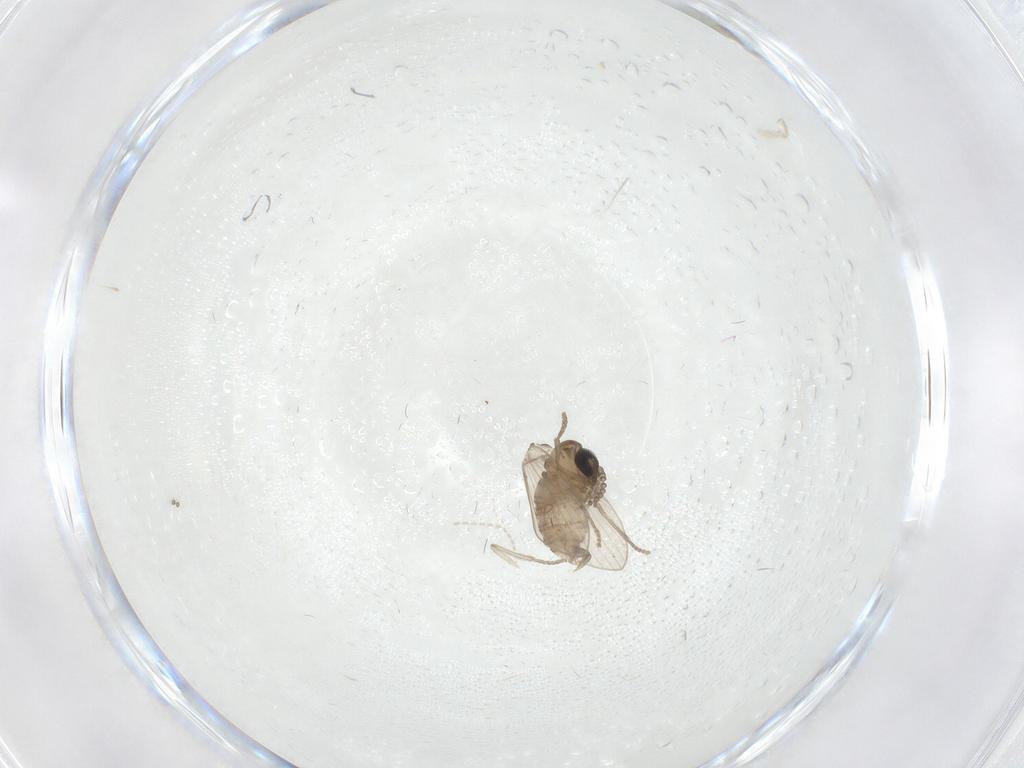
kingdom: Animalia
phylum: Arthropoda
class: Insecta
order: Diptera
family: Psychodidae
